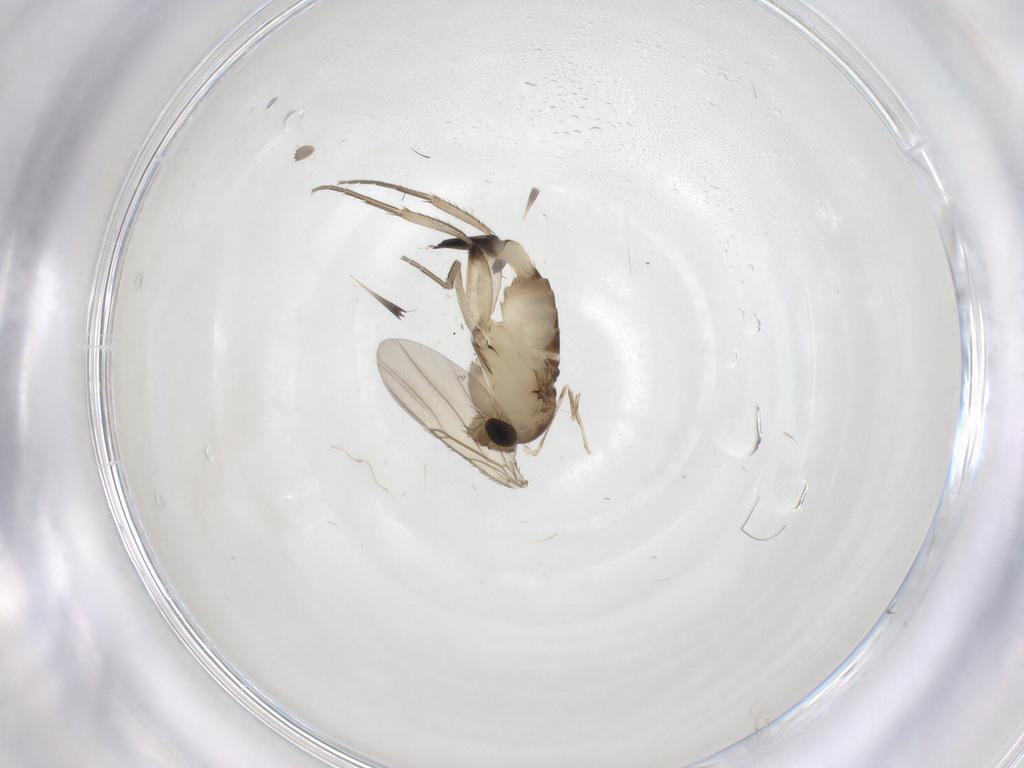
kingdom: Animalia
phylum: Arthropoda
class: Insecta
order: Diptera
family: Phoridae
